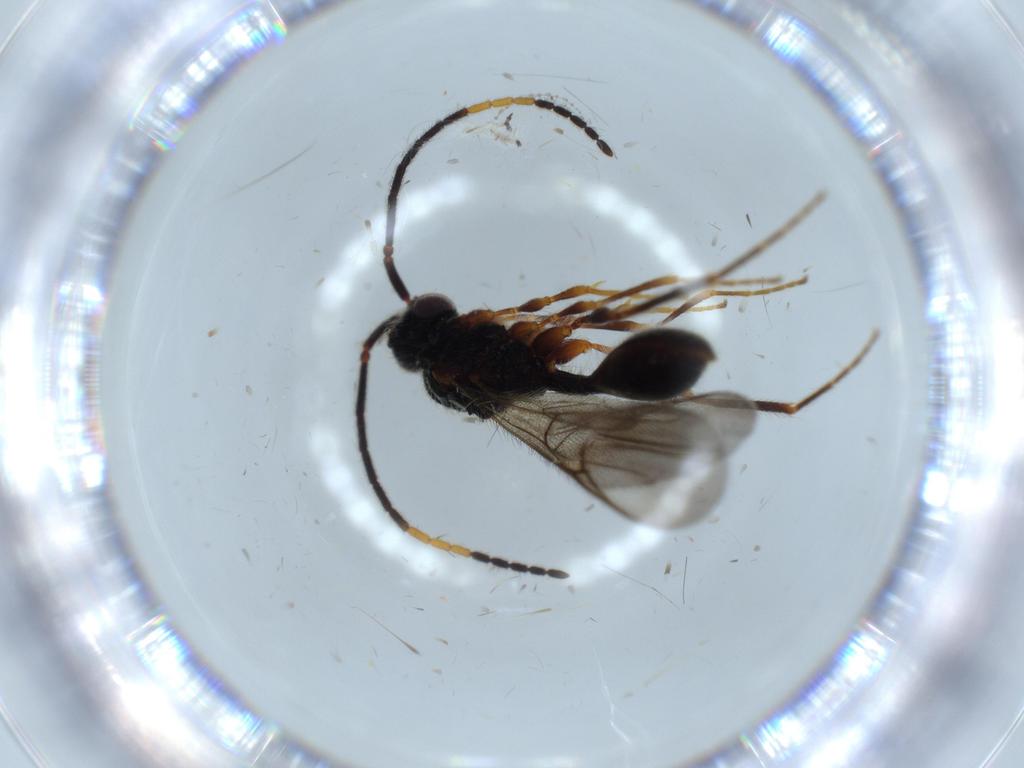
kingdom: Animalia
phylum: Arthropoda
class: Insecta
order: Hymenoptera
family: Diapriidae
